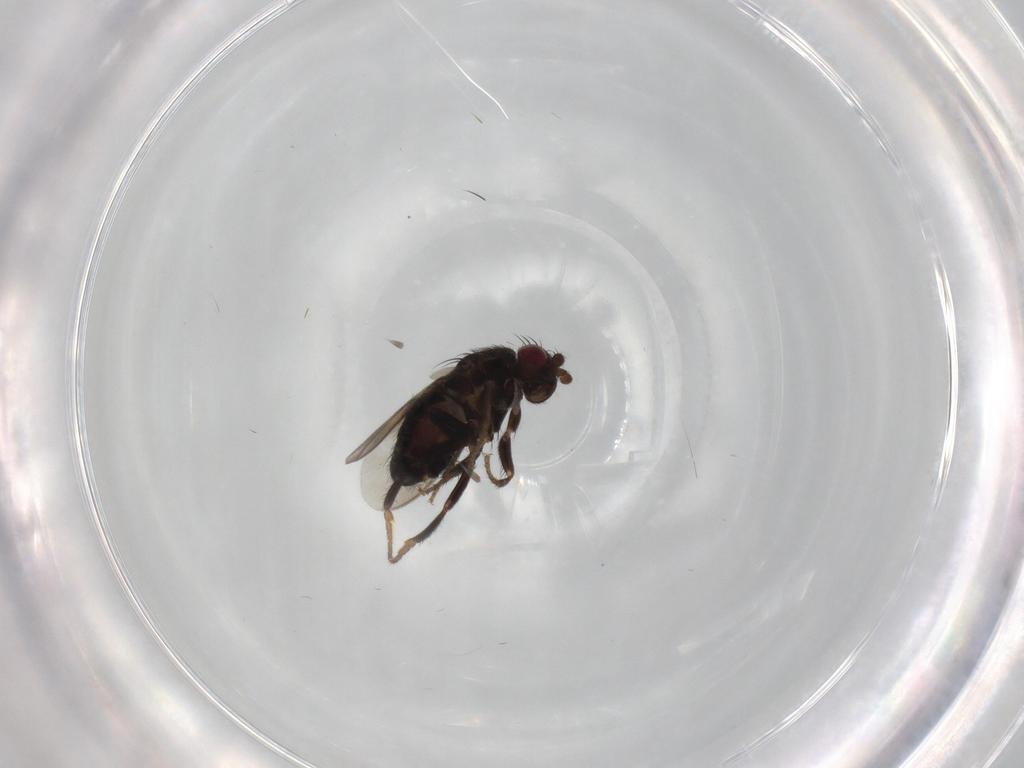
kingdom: Animalia
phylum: Arthropoda
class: Insecta
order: Diptera
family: Sphaeroceridae
